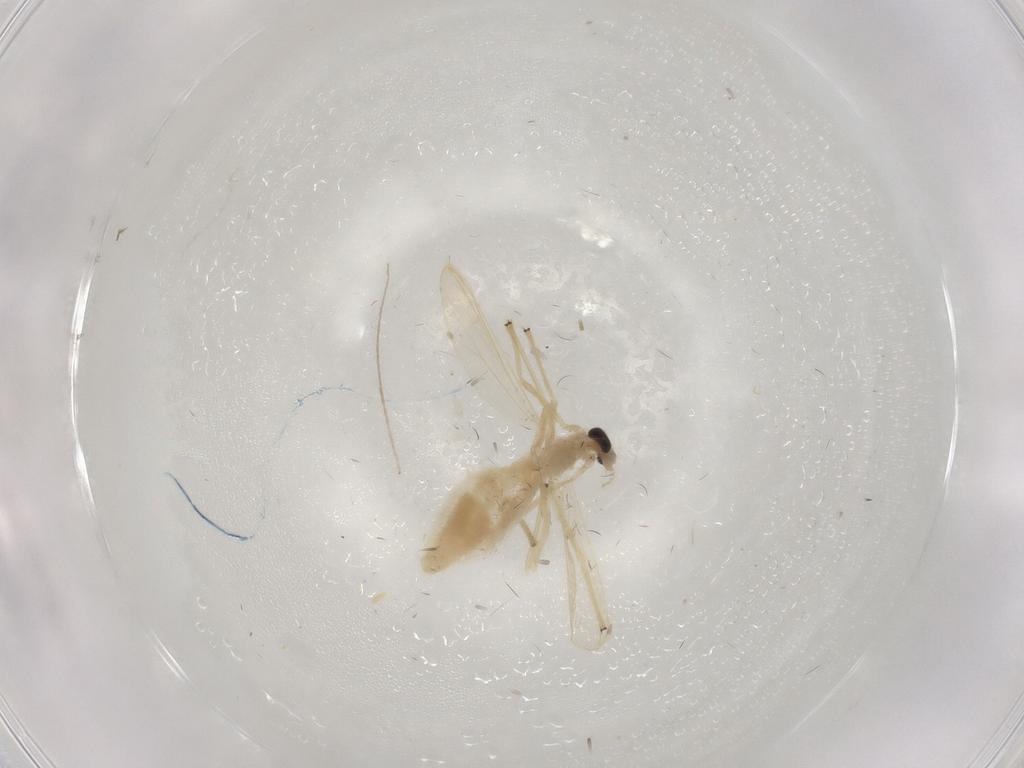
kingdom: Animalia
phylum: Arthropoda
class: Insecta
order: Diptera
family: Chironomidae
